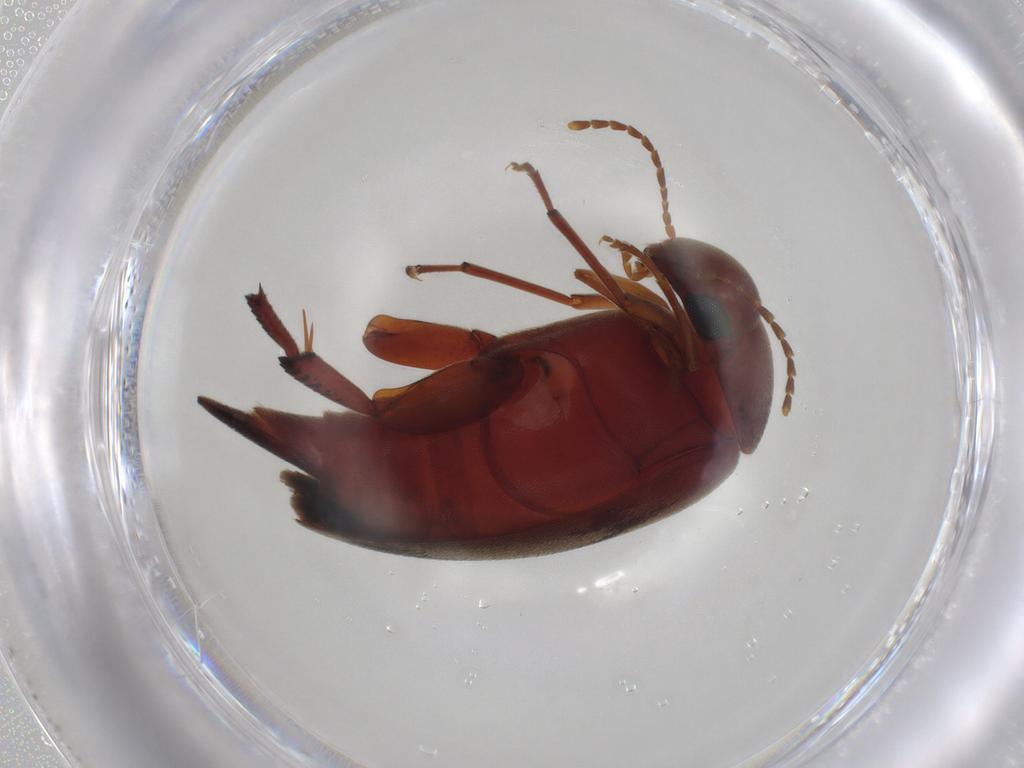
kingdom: Animalia
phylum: Arthropoda
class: Insecta
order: Coleoptera
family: Mordellidae
